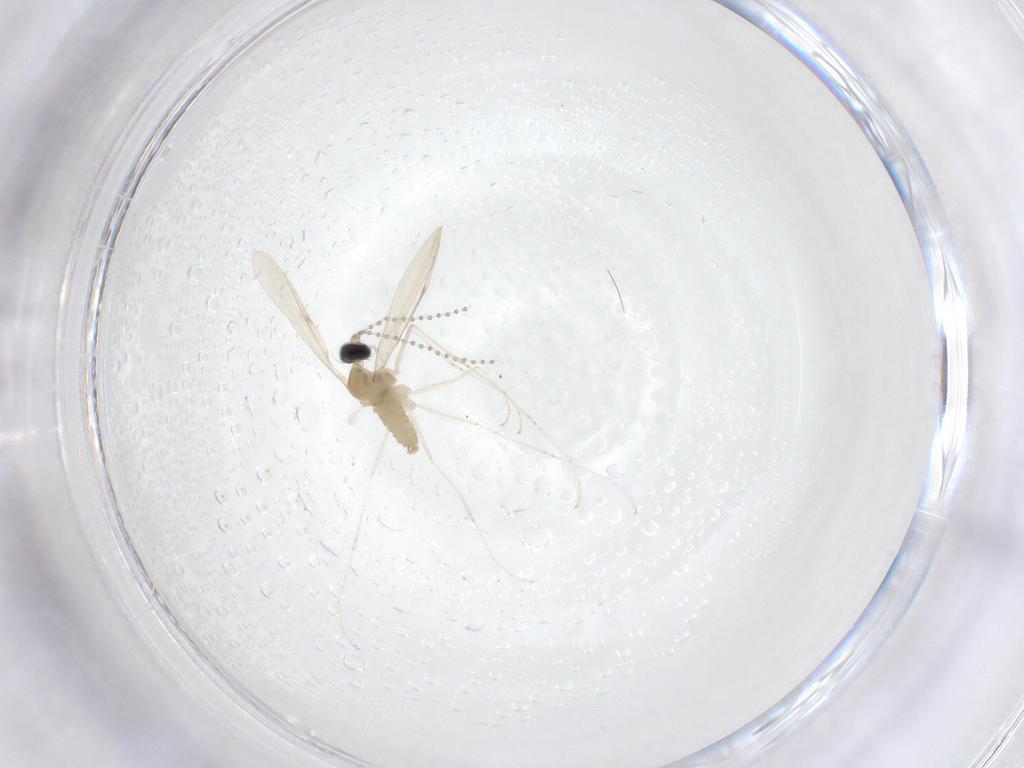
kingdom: Animalia
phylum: Arthropoda
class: Insecta
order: Diptera
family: Cecidomyiidae
